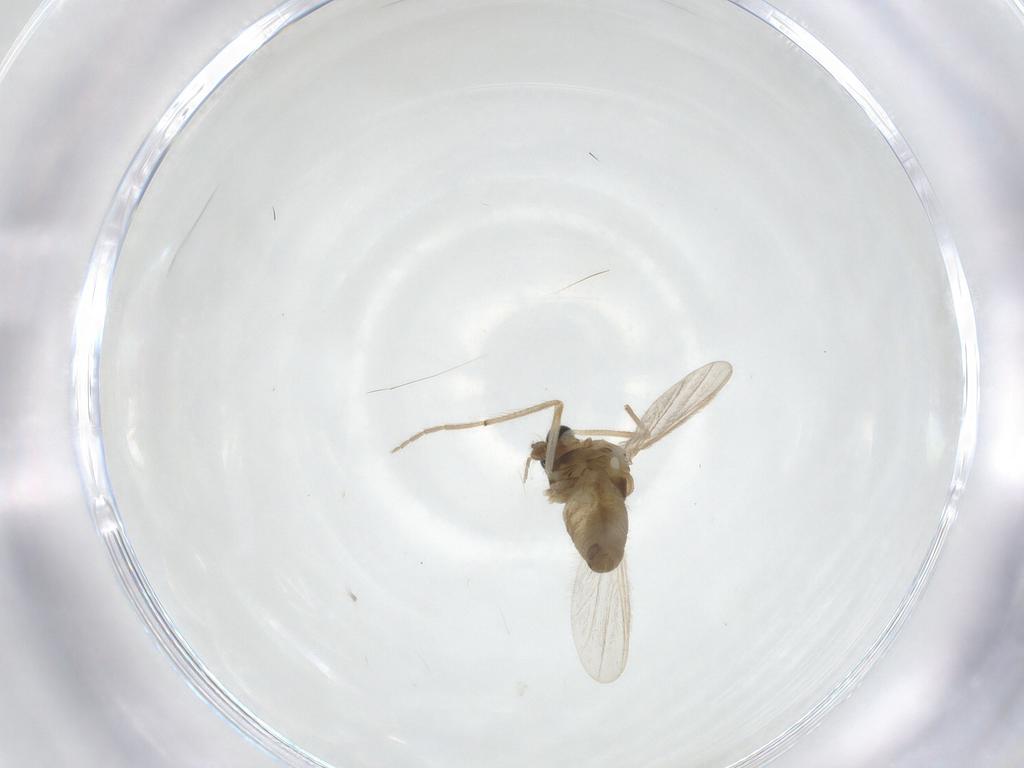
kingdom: Animalia
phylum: Arthropoda
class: Insecta
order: Diptera
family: Chironomidae
